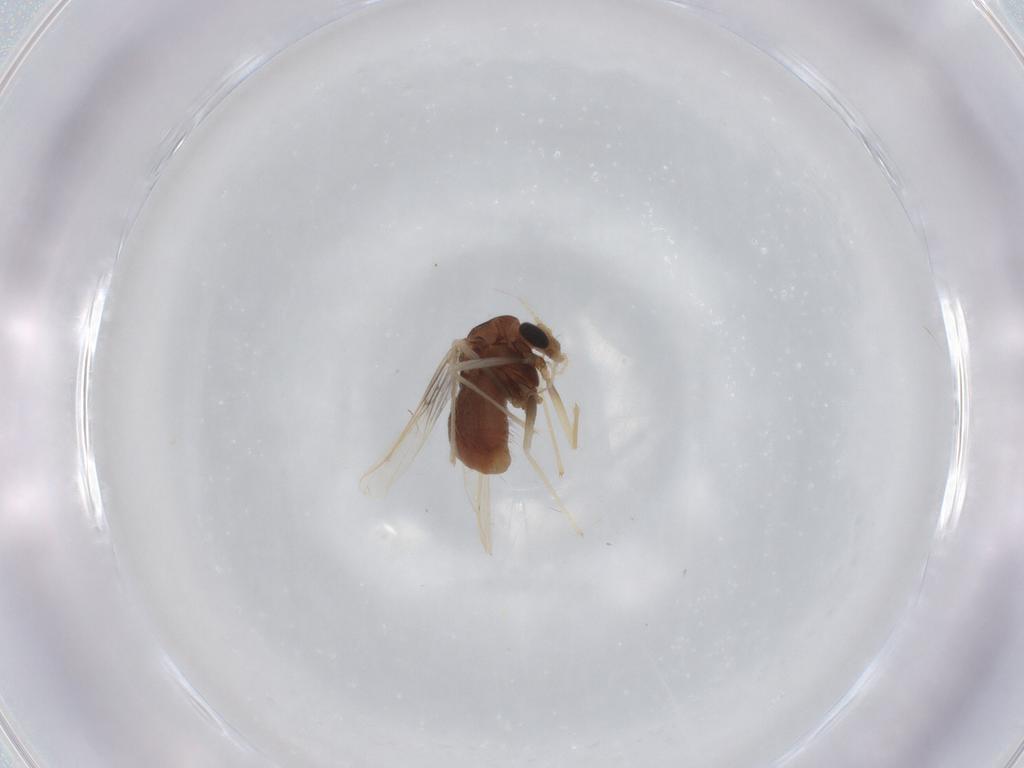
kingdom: Animalia
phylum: Arthropoda
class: Insecta
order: Diptera
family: Chironomidae
